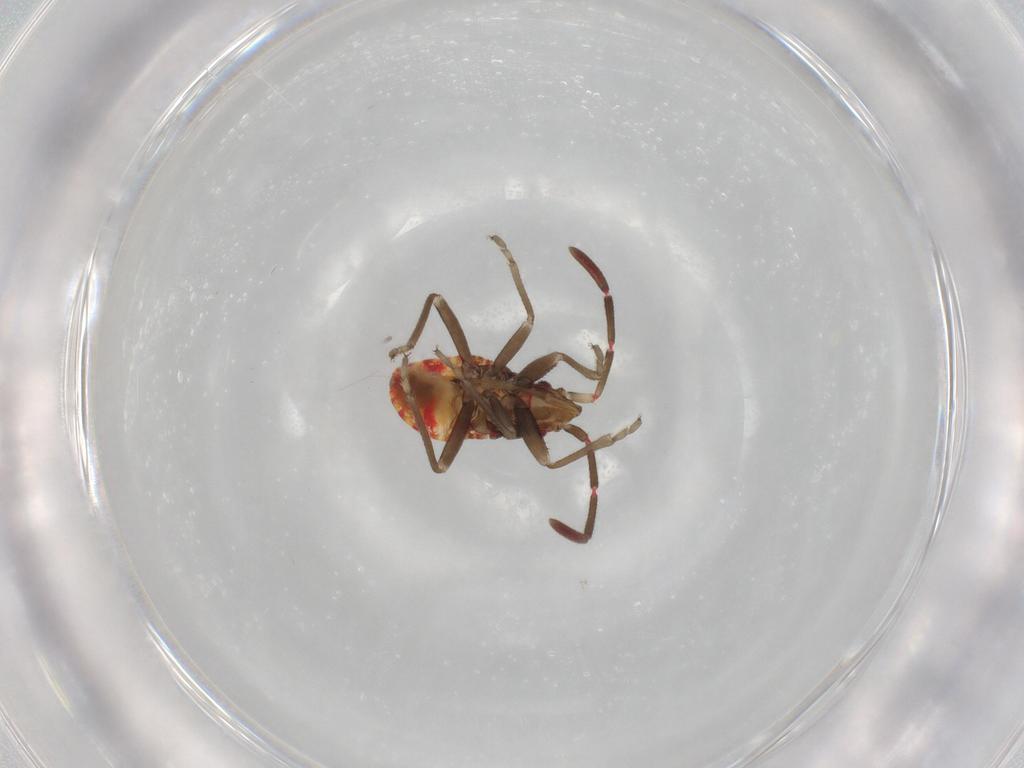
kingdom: Animalia
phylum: Arthropoda
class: Insecta
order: Hemiptera
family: Rhyparochromidae
